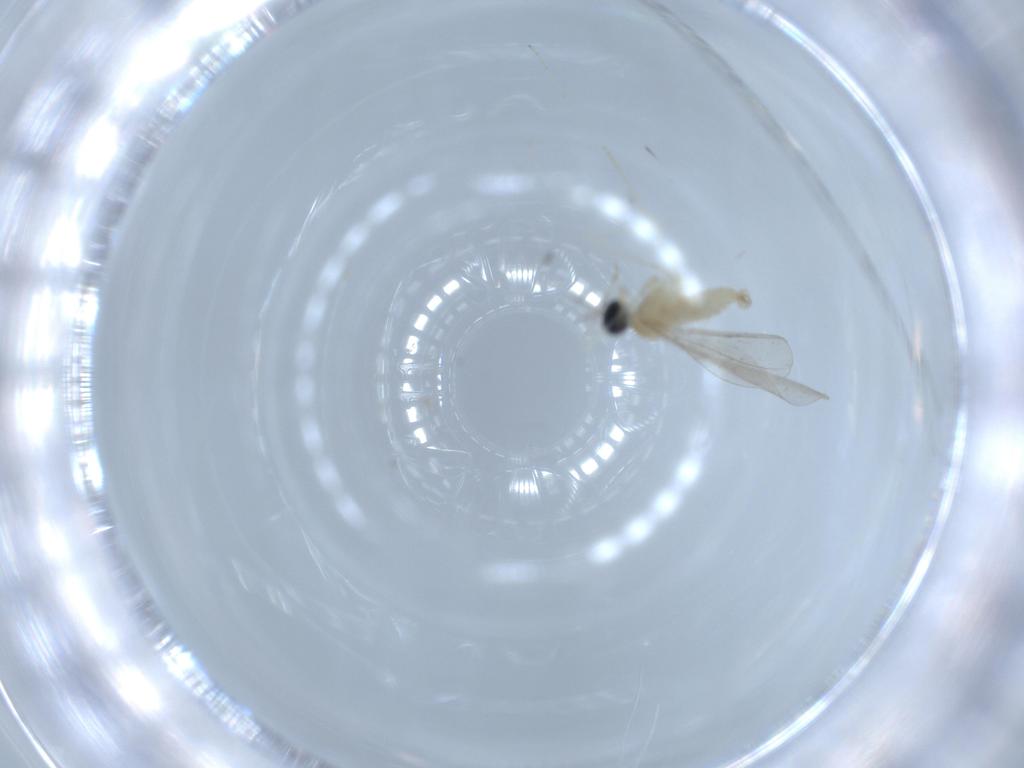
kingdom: Animalia
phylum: Arthropoda
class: Insecta
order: Diptera
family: Cecidomyiidae
